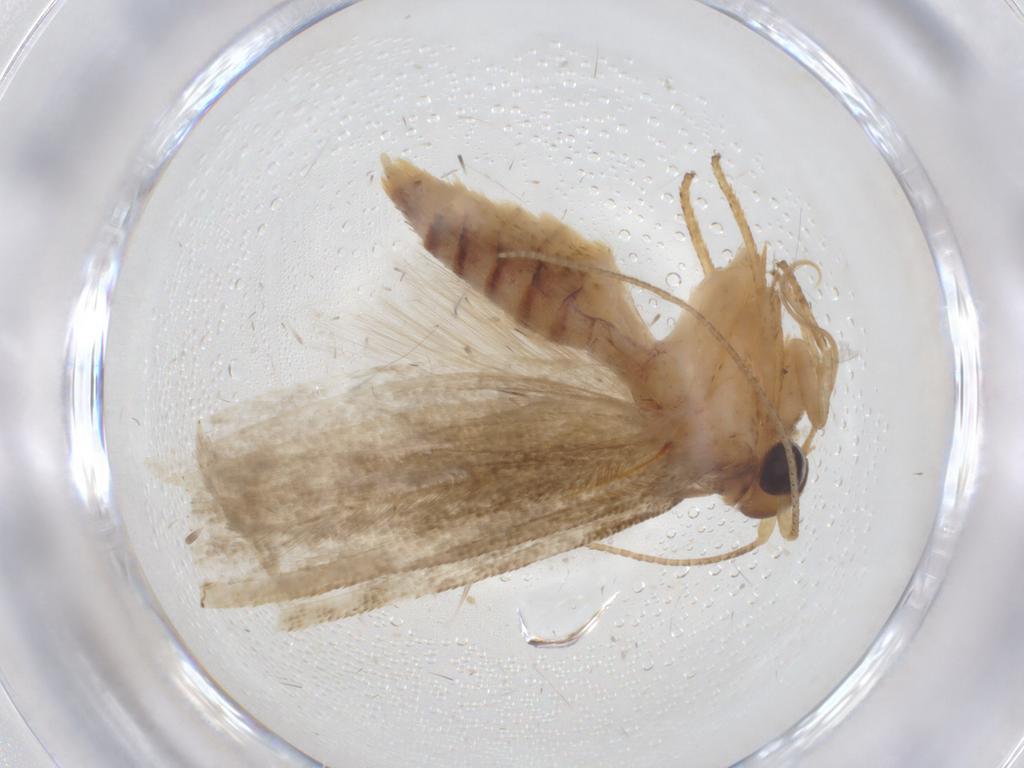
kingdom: Animalia
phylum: Arthropoda
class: Insecta
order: Lepidoptera
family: Blastobasidae
